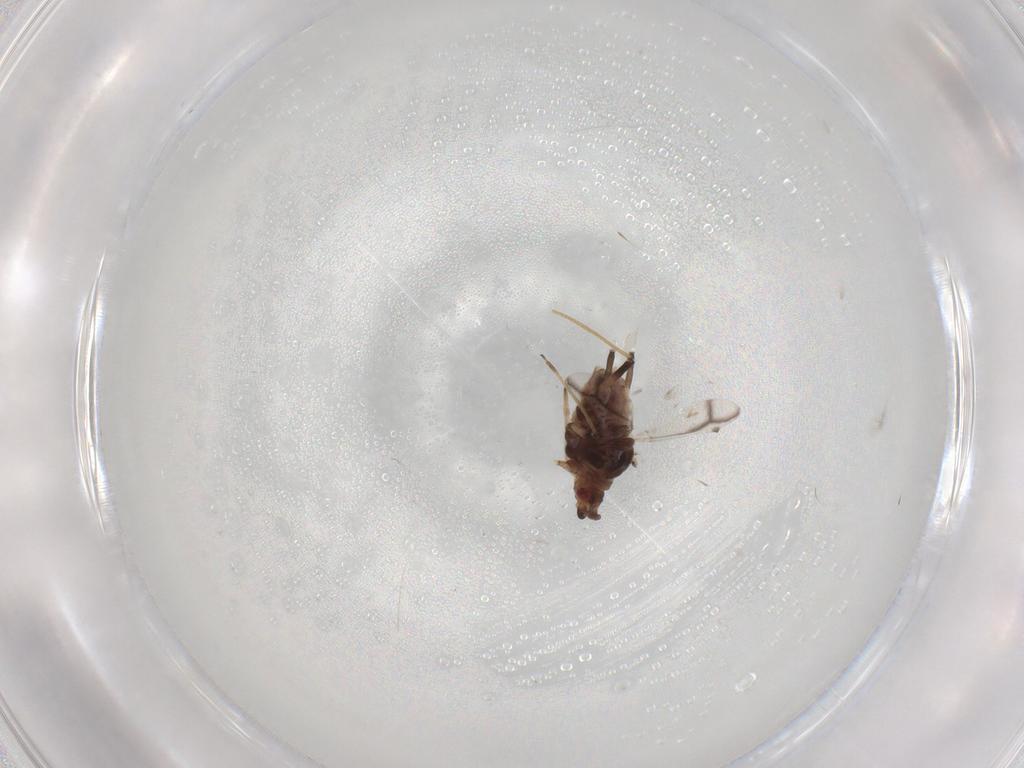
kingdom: Animalia
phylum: Arthropoda
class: Insecta
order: Hemiptera
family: Aphididae
